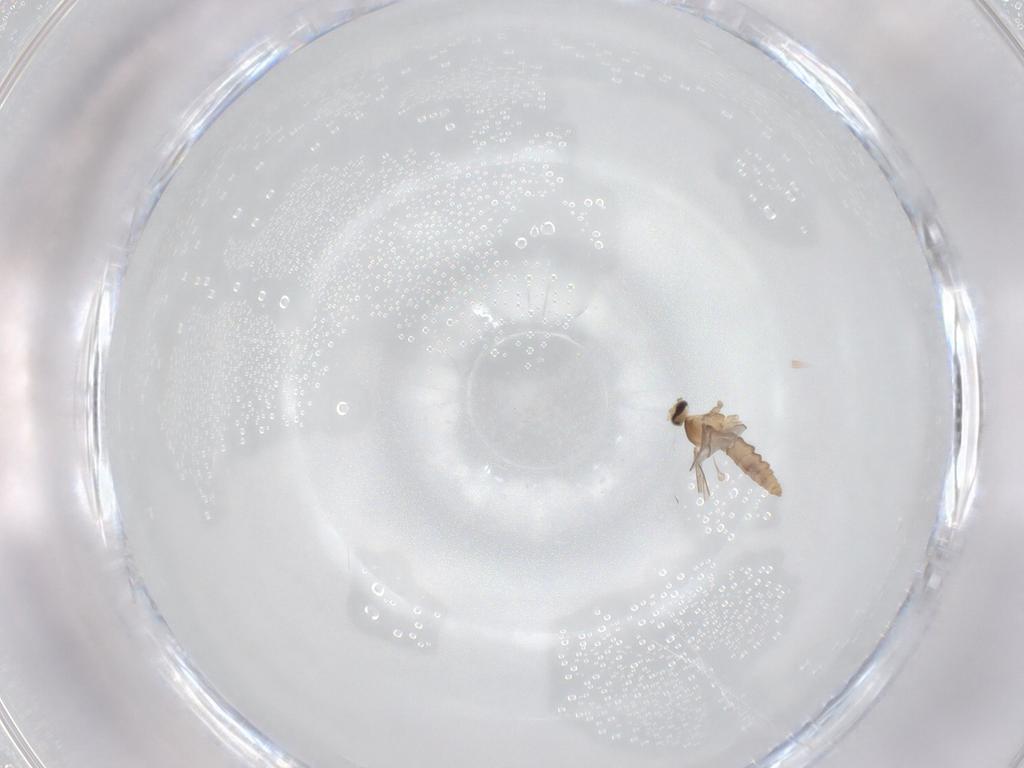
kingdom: Animalia
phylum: Arthropoda
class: Insecta
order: Diptera
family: Cecidomyiidae
